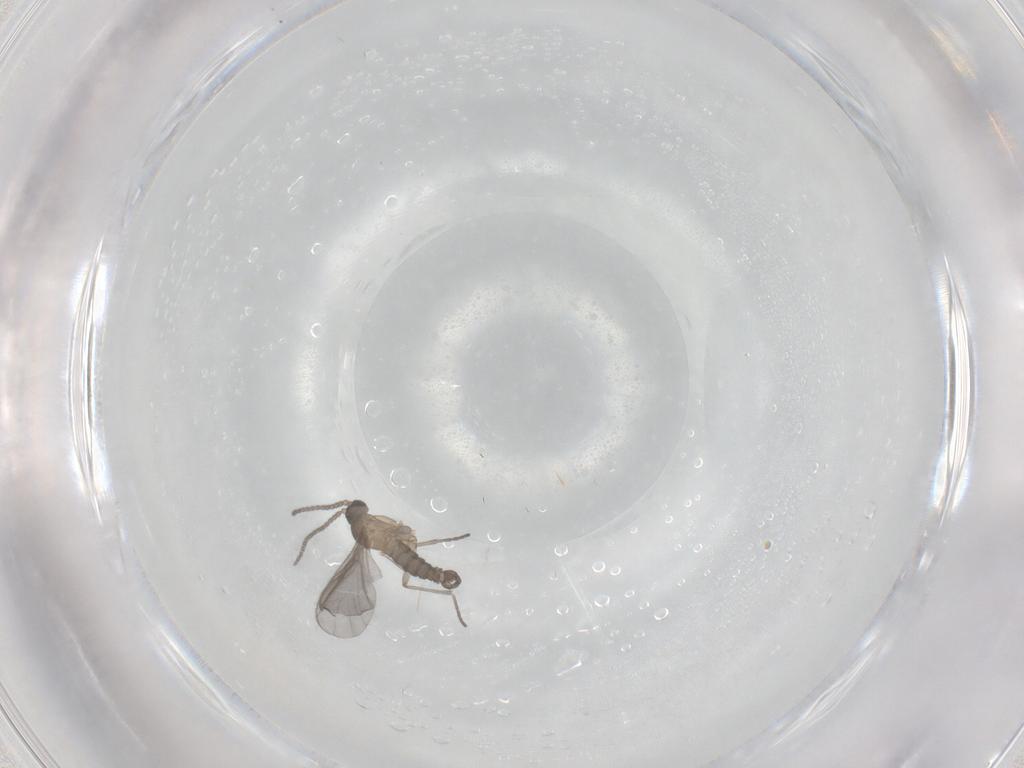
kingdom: Animalia
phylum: Arthropoda
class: Insecta
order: Diptera
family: Sciaridae
